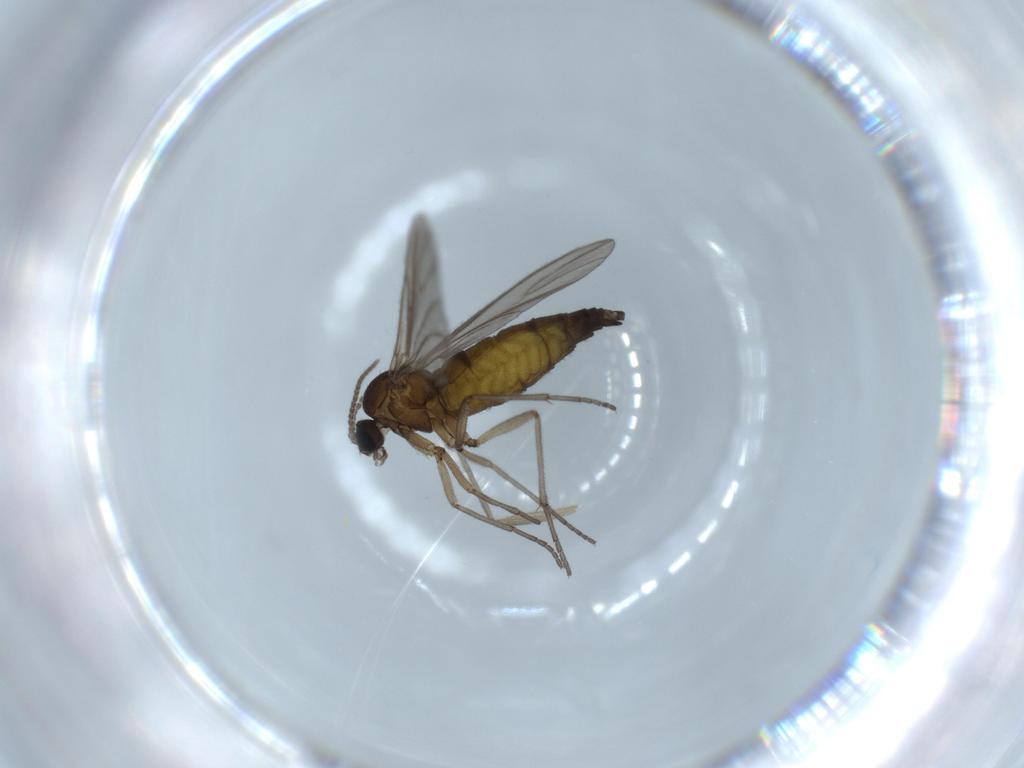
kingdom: Animalia
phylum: Arthropoda
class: Insecta
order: Diptera
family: Sciaridae
